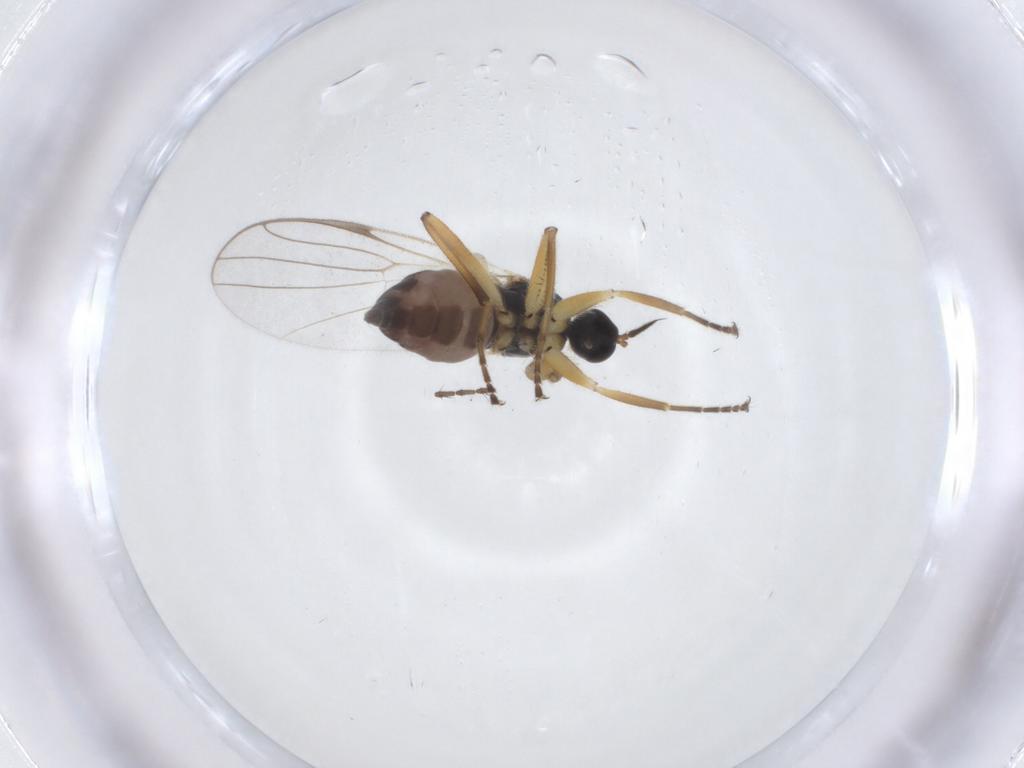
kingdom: Animalia
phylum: Arthropoda
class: Insecta
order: Diptera
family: Hybotidae
